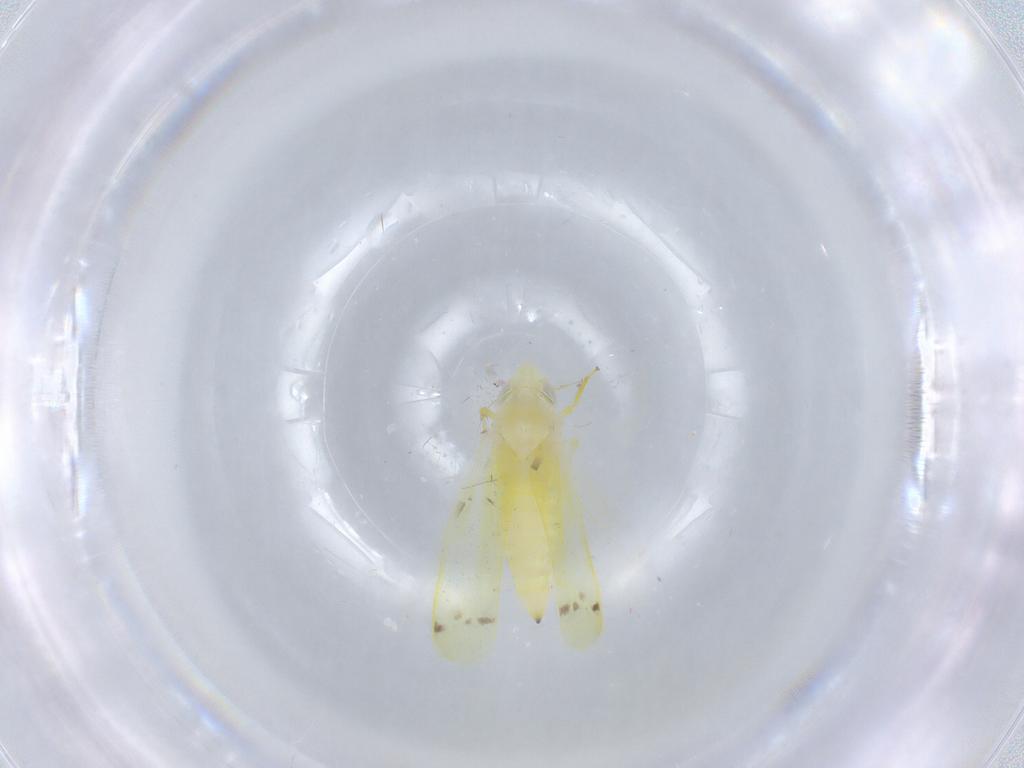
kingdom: Animalia
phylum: Arthropoda
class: Insecta
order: Hemiptera
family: Cicadellidae
